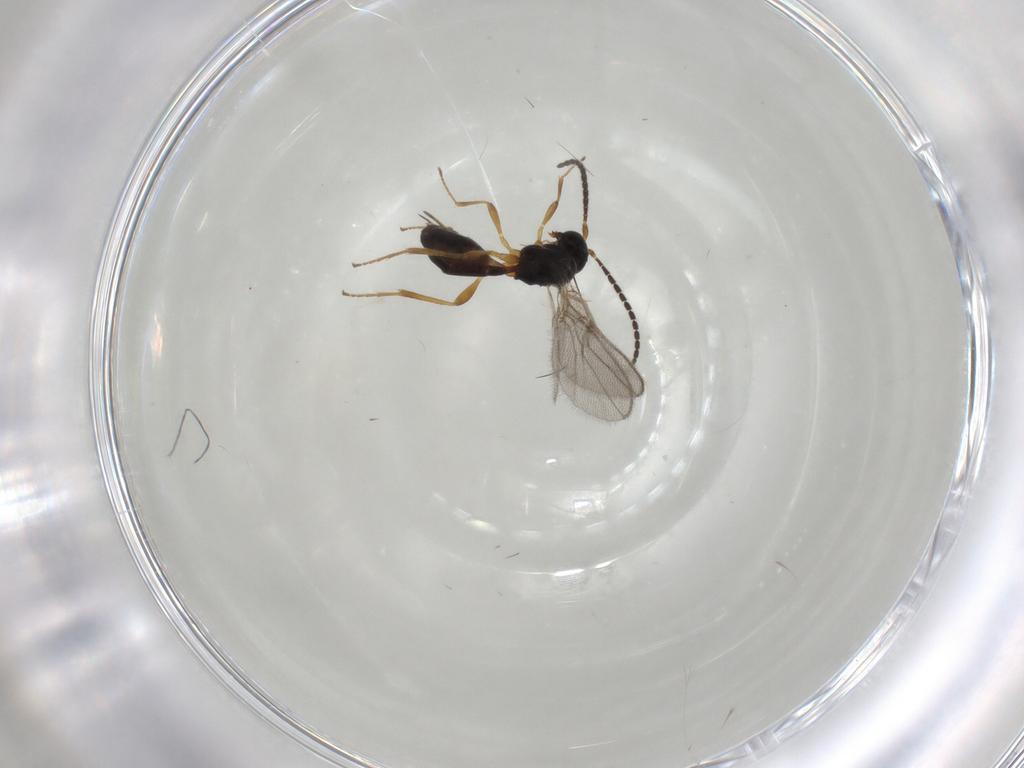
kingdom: Animalia
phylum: Arthropoda
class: Insecta
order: Hymenoptera
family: Braconidae
